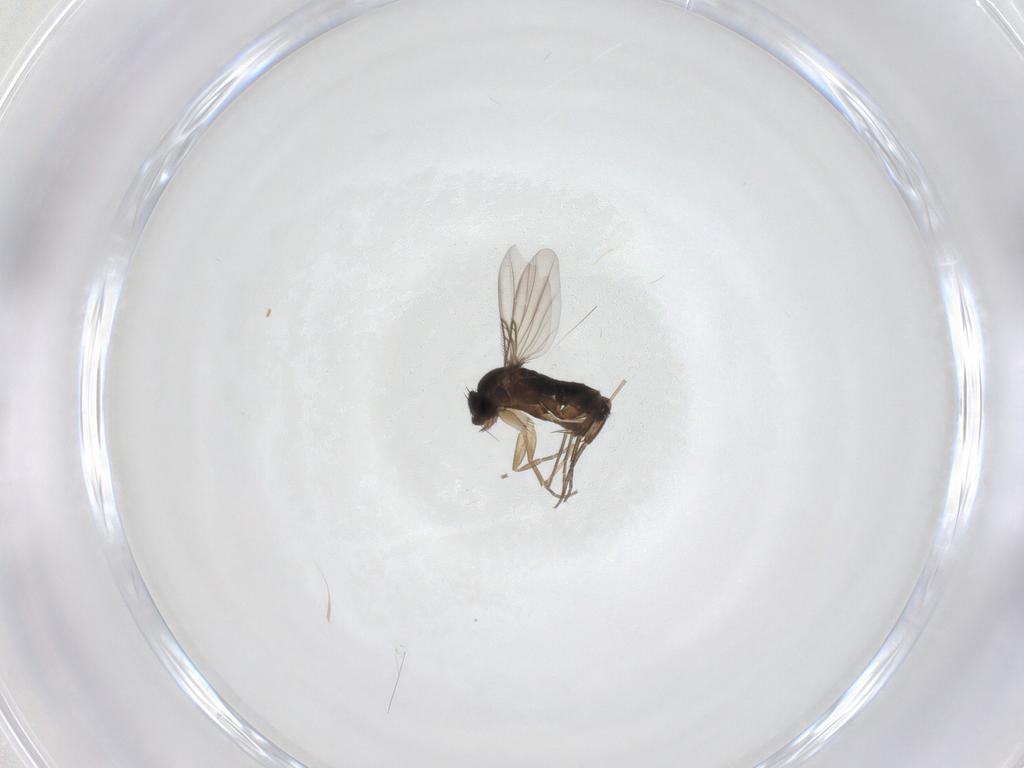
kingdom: Animalia
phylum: Arthropoda
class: Insecta
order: Diptera
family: Phoridae
